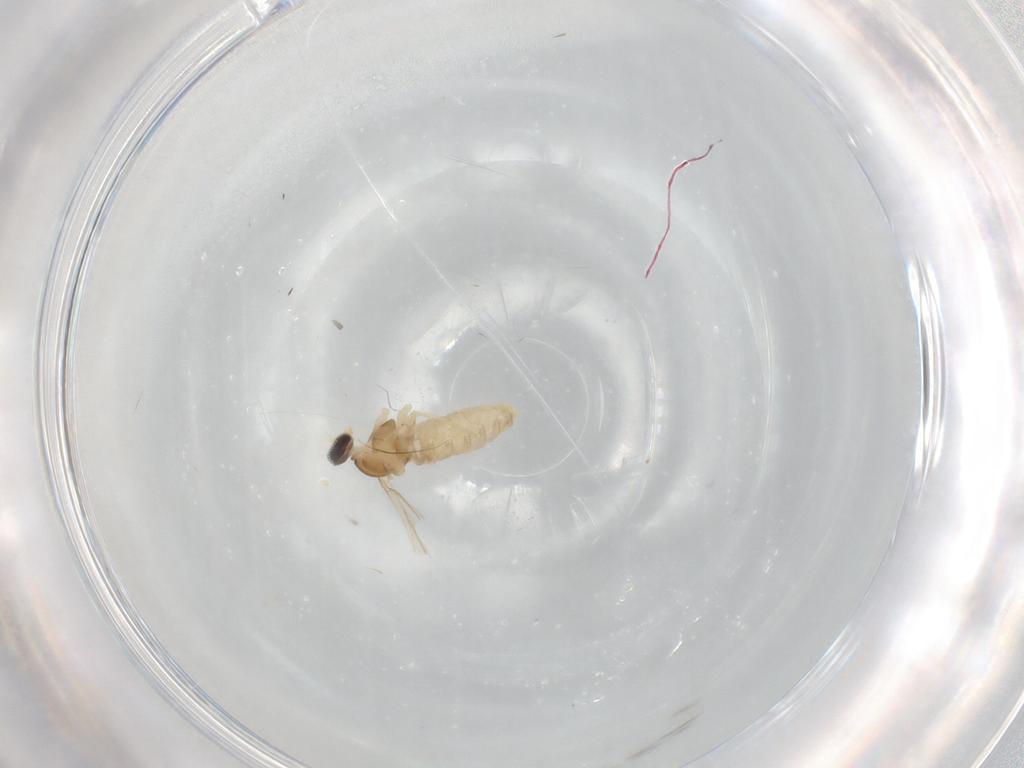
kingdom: Animalia
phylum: Arthropoda
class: Insecta
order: Diptera
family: Cecidomyiidae
